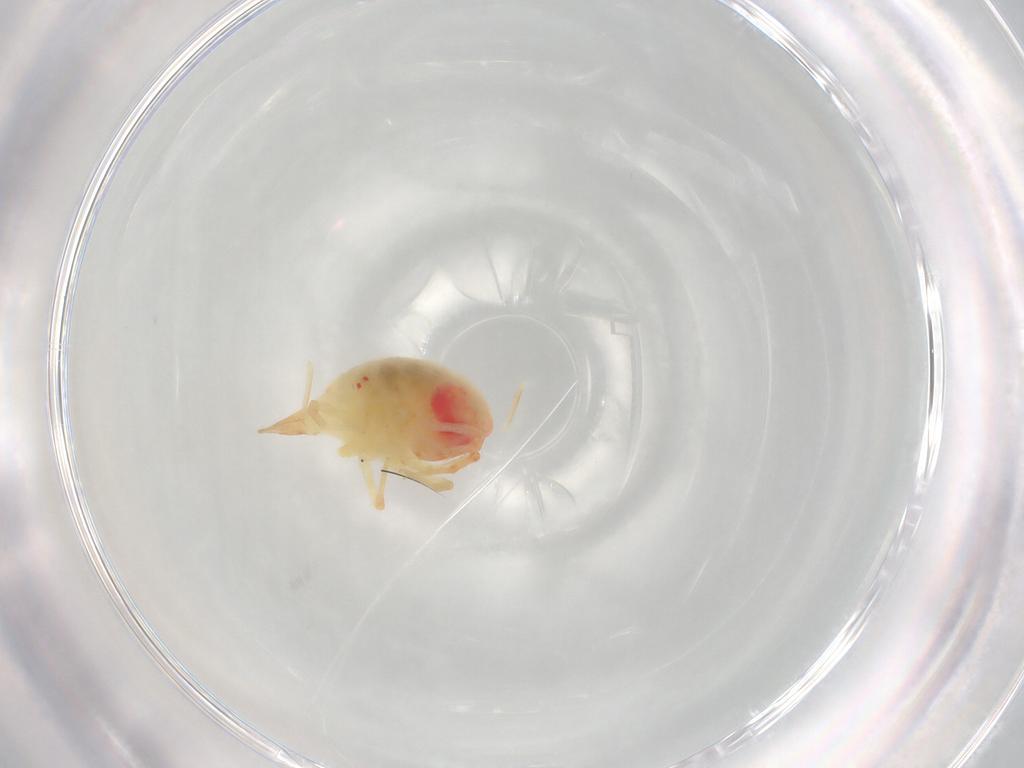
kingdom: Animalia
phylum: Arthropoda
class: Arachnida
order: Trombidiformes
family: Bdellidae
